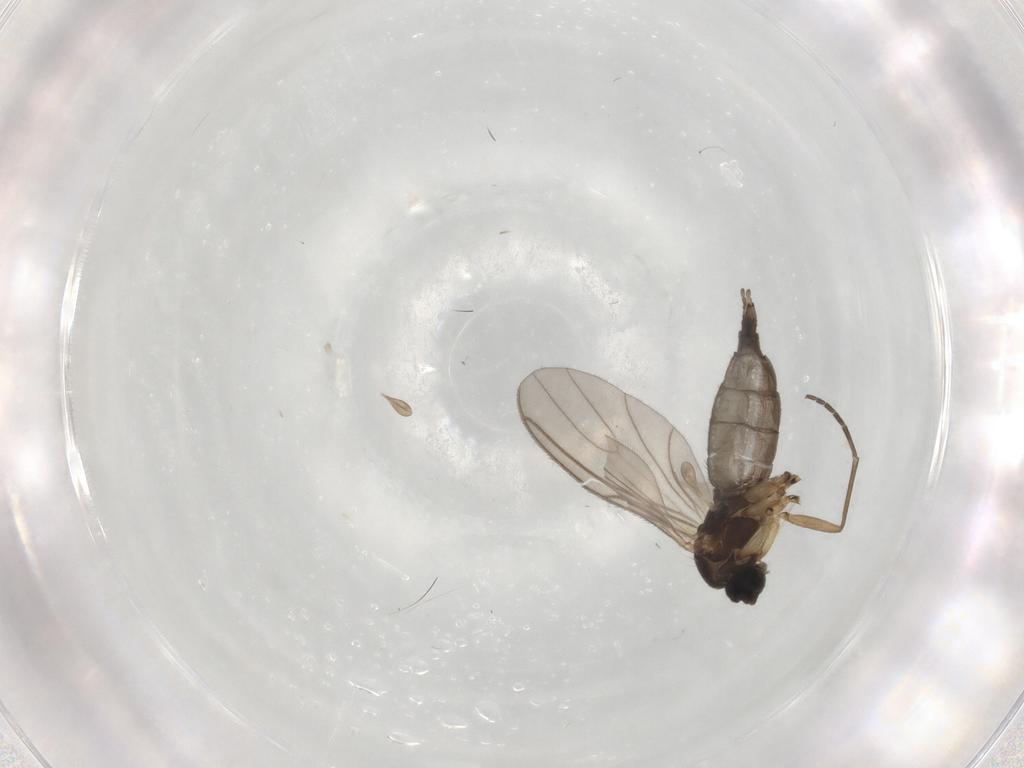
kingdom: Animalia
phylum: Arthropoda
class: Insecta
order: Diptera
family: Sciaridae
